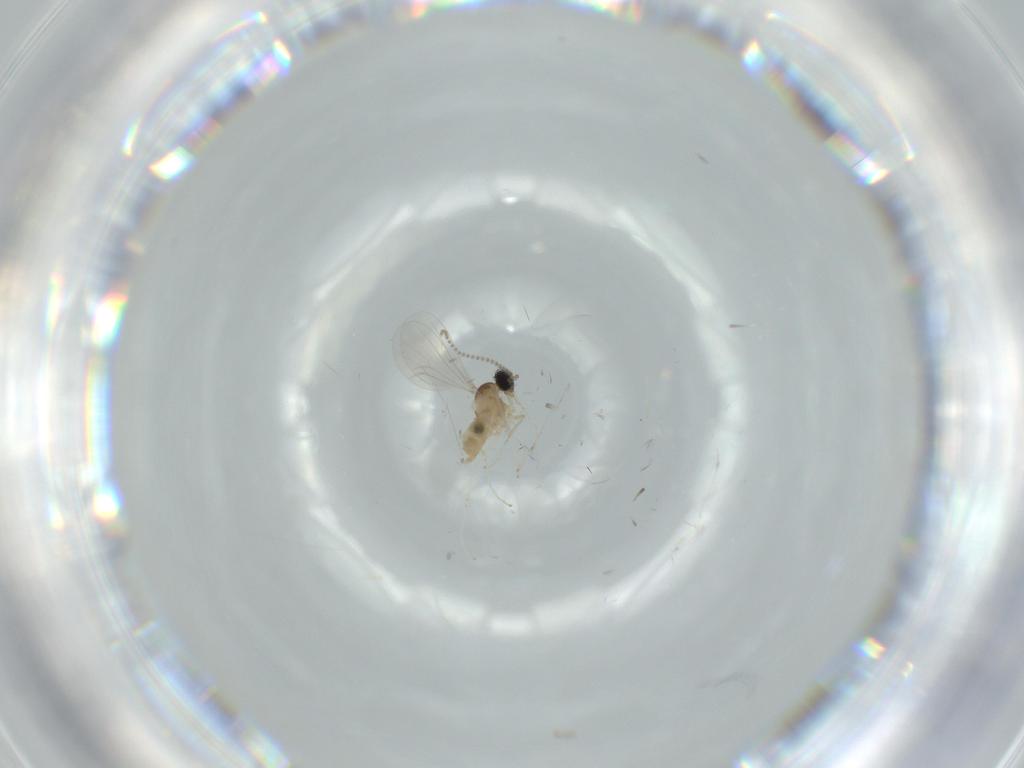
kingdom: Animalia
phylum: Arthropoda
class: Insecta
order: Diptera
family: Cecidomyiidae
